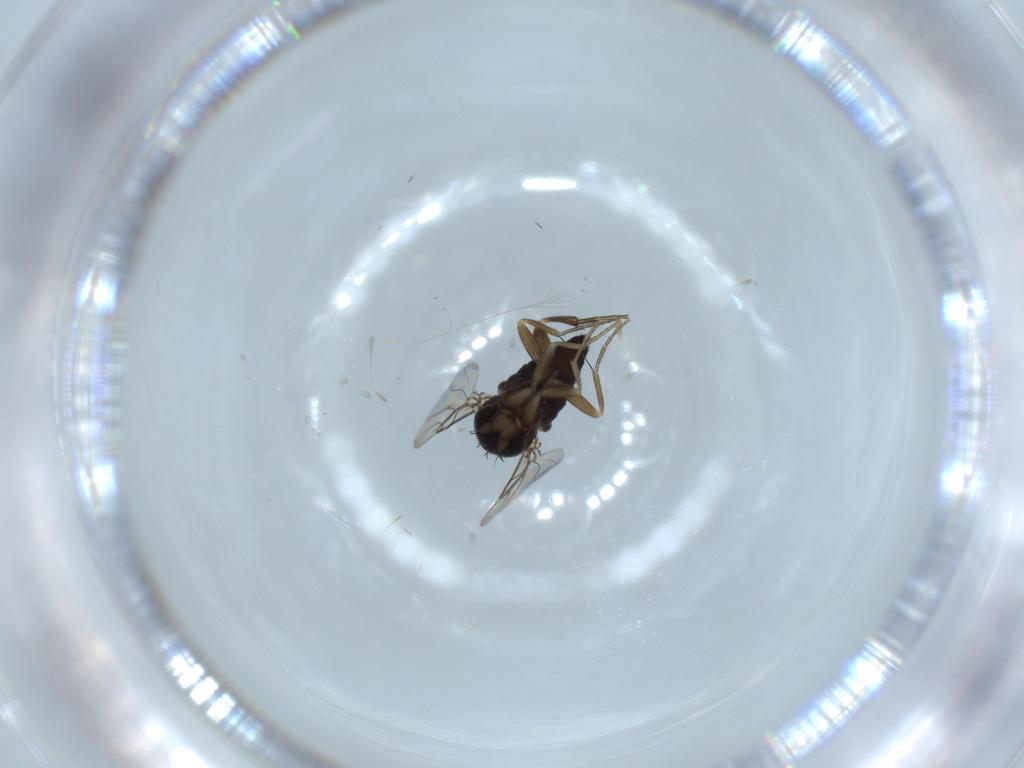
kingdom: Animalia
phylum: Arthropoda
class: Insecta
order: Diptera
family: Phoridae
